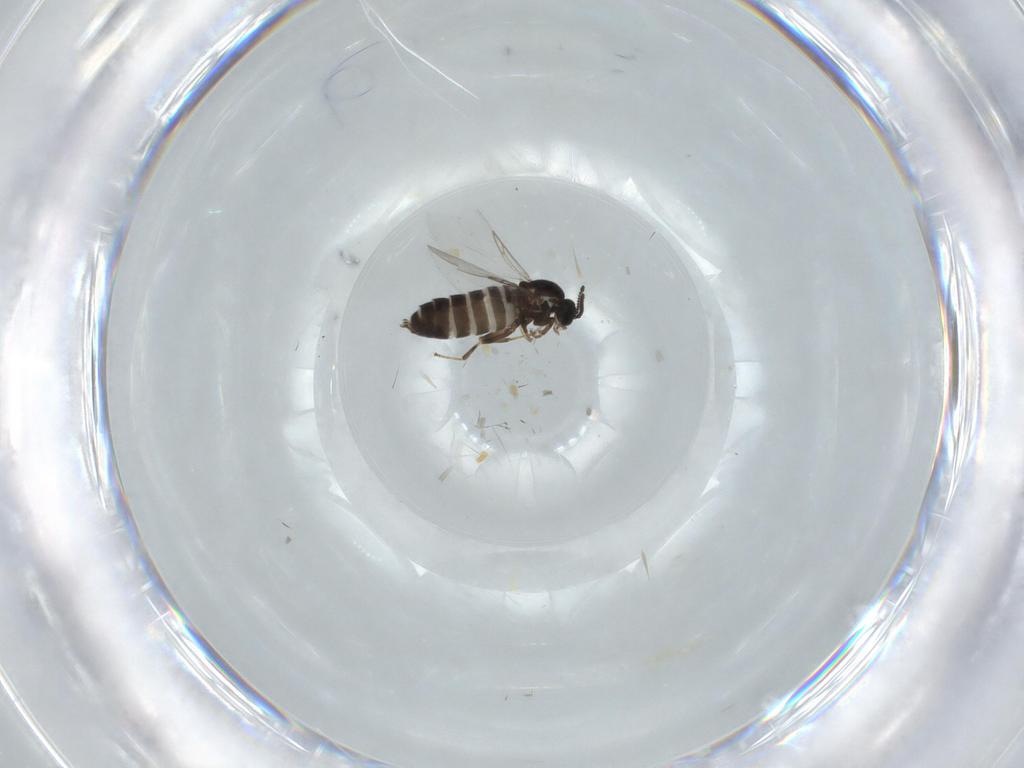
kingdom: Animalia
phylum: Arthropoda
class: Insecta
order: Diptera
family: Scatopsidae
